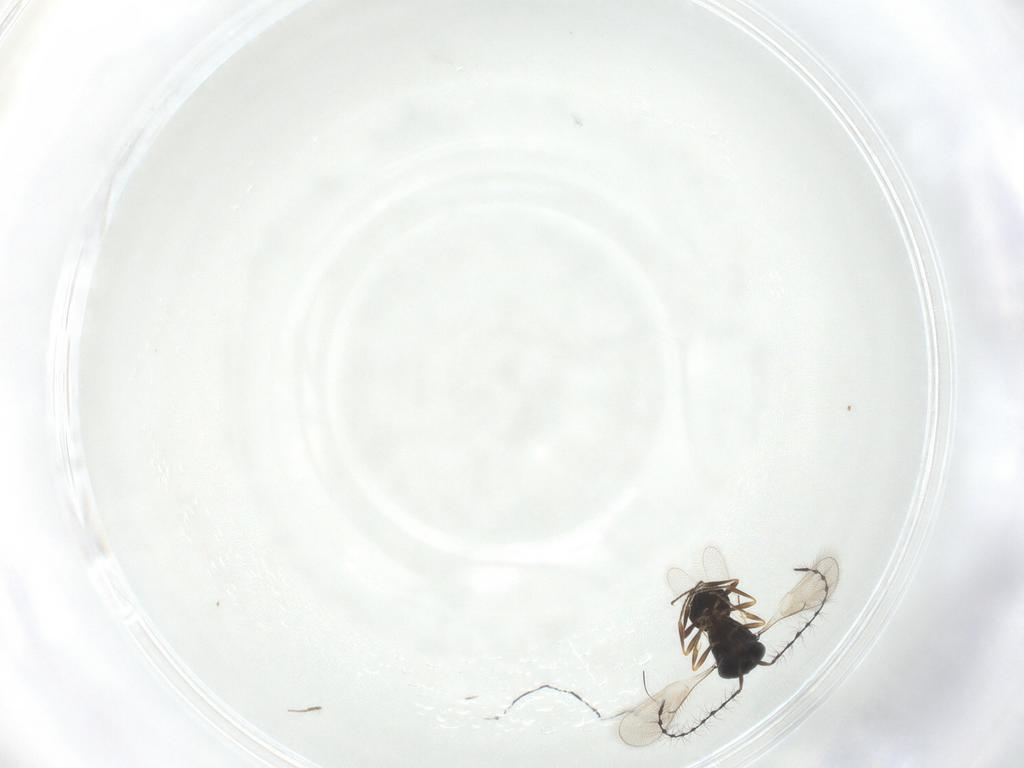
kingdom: Animalia
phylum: Arthropoda
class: Insecta
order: Hymenoptera
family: Scelionidae
